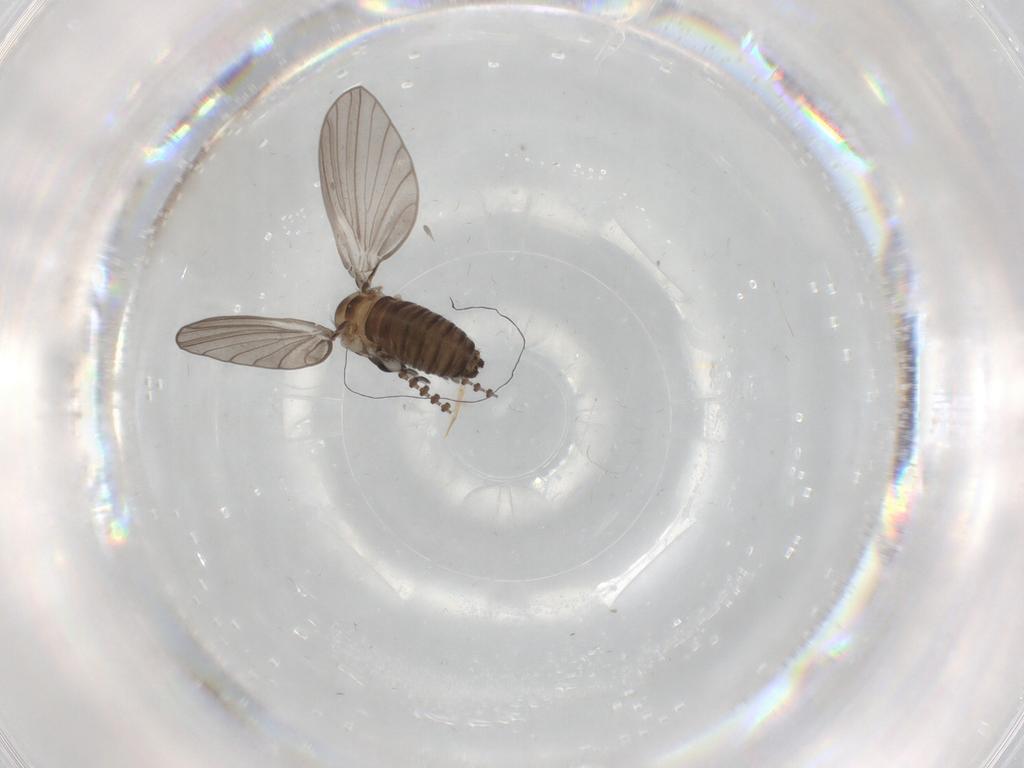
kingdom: Animalia
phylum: Arthropoda
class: Insecta
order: Diptera
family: Psychodidae
